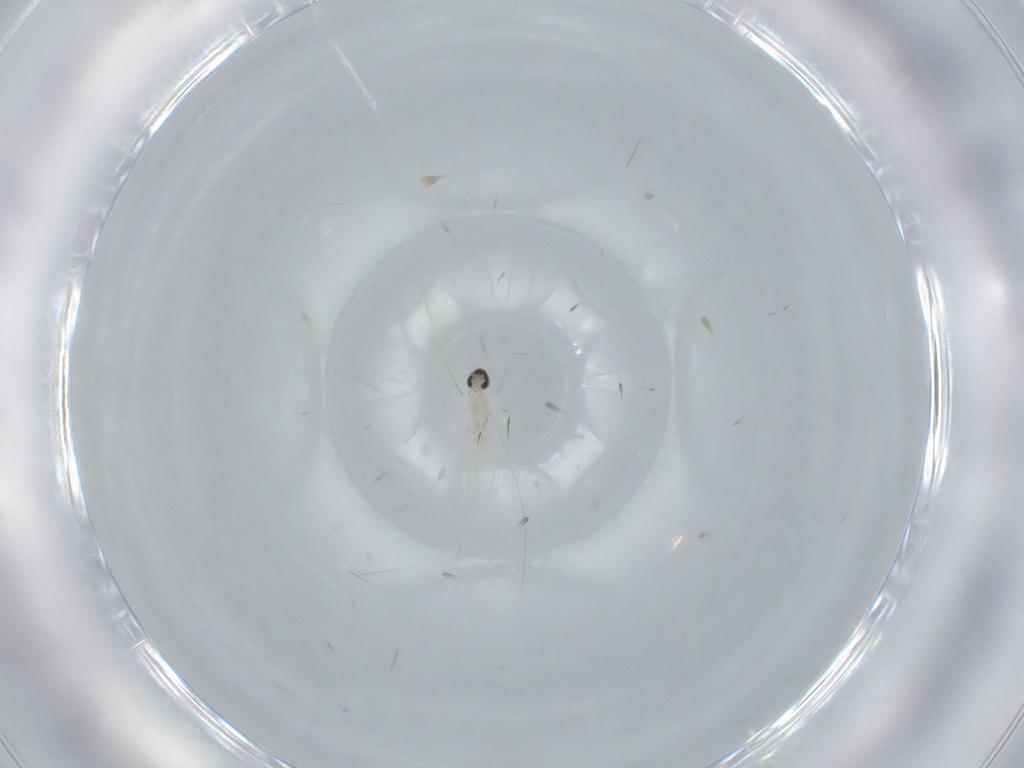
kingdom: Animalia
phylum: Arthropoda
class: Insecta
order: Diptera
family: Cecidomyiidae
